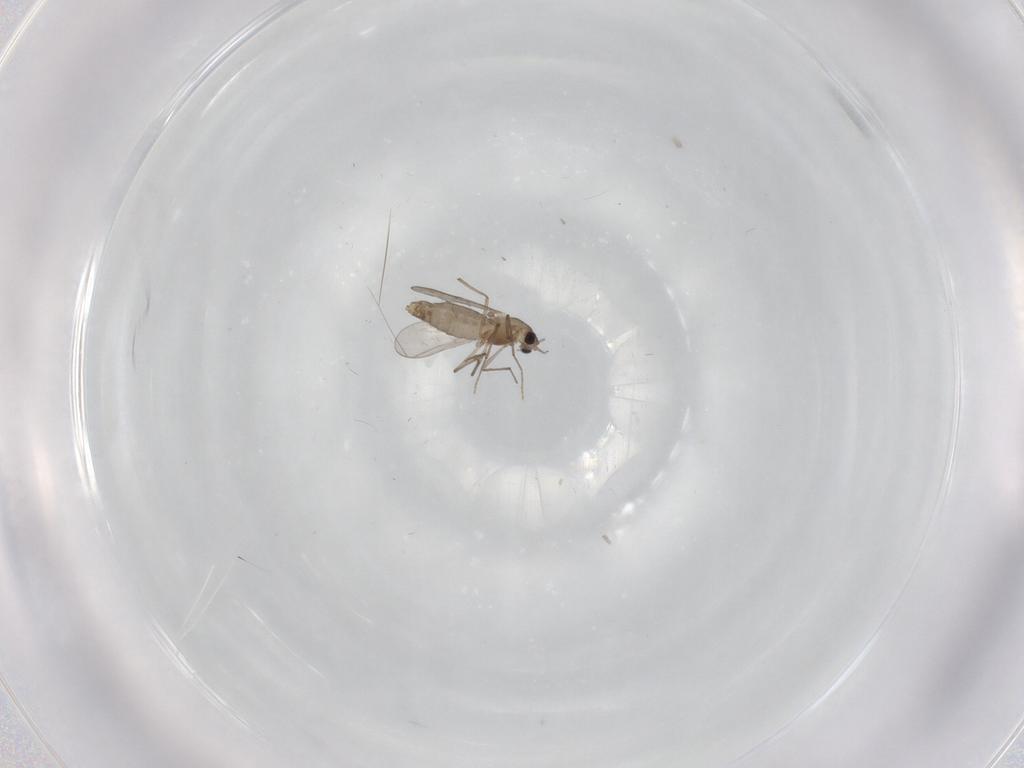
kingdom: Animalia
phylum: Arthropoda
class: Insecta
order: Diptera
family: Chironomidae
